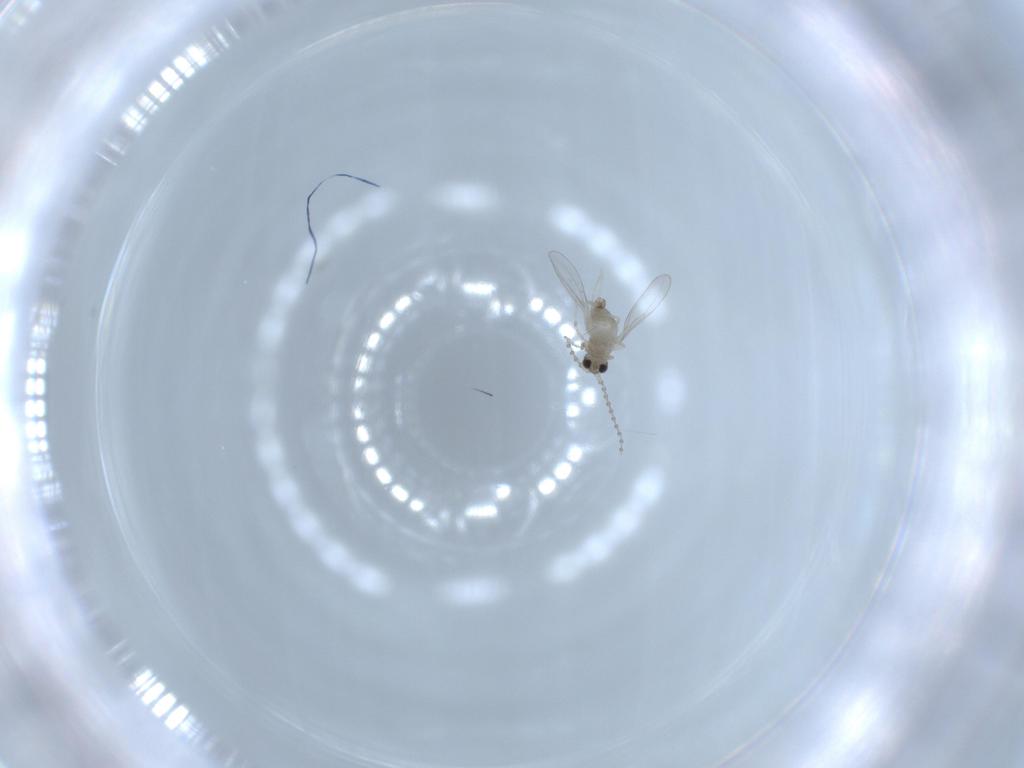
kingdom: Animalia
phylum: Arthropoda
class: Insecta
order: Diptera
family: Cecidomyiidae
